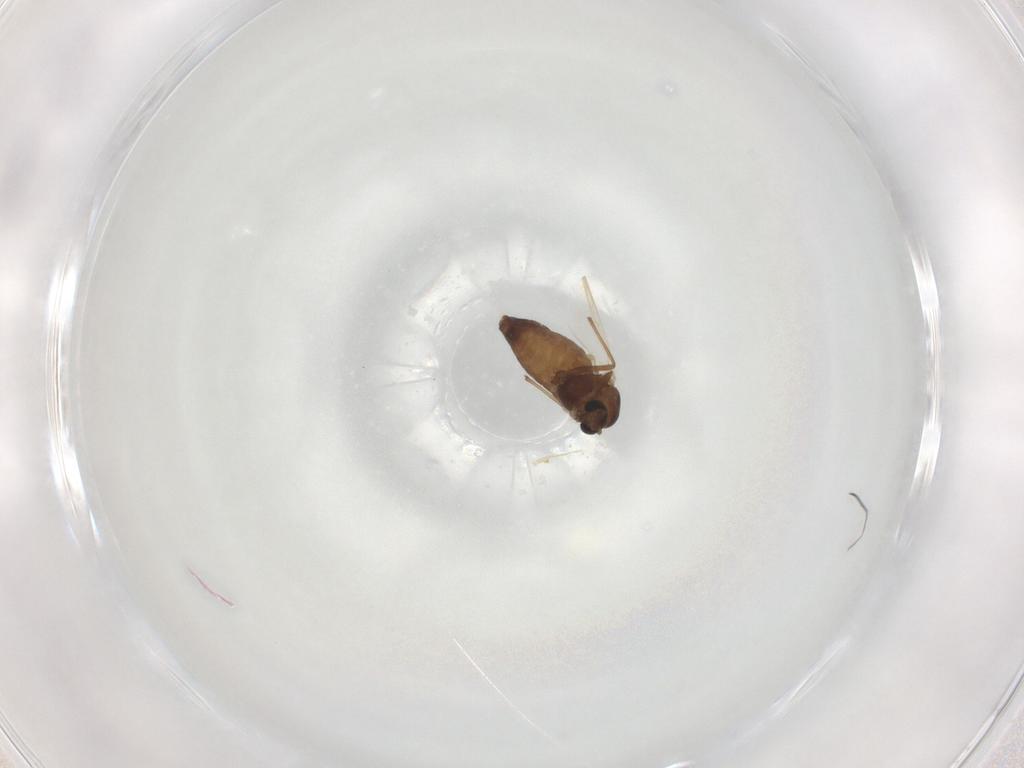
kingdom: Animalia
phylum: Arthropoda
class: Insecta
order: Diptera
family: Chironomidae
